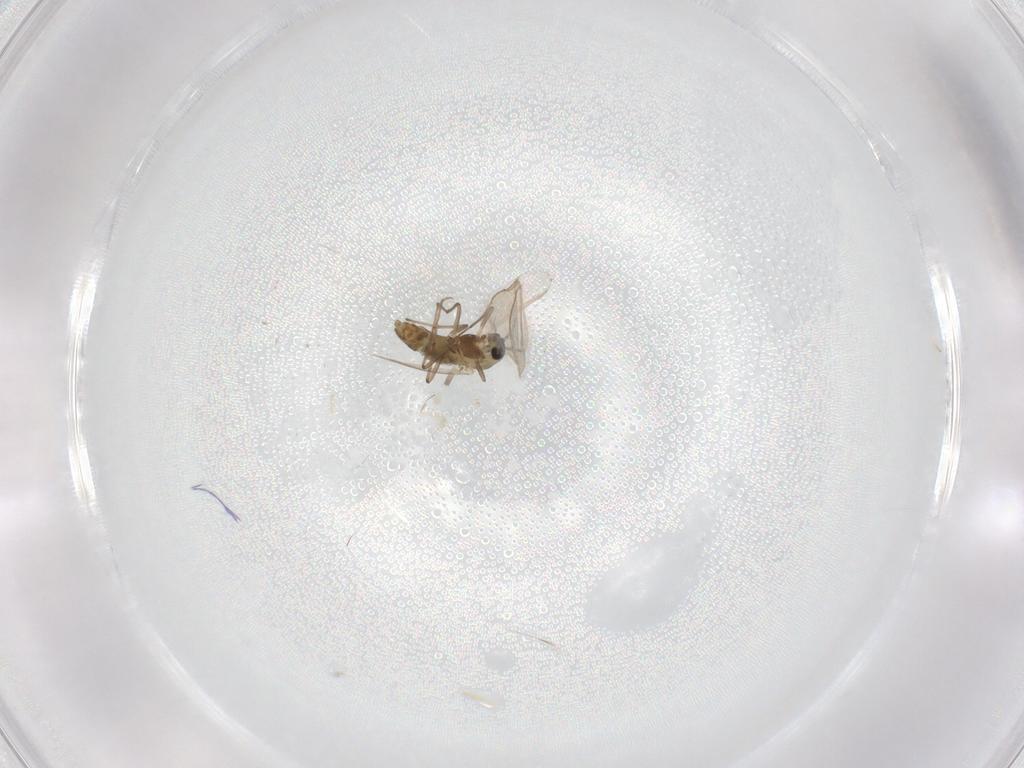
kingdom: Animalia
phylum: Arthropoda
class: Insecta
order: Diptera
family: Chironomidae
